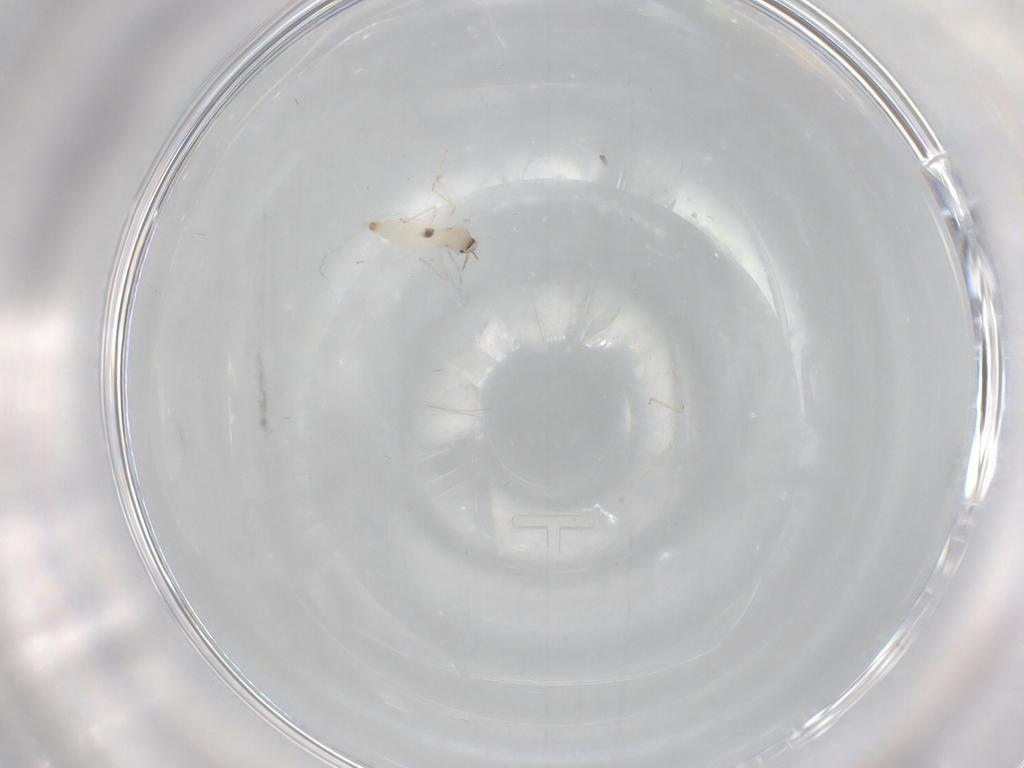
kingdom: Animalia
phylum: Arthropoda
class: Insecta
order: Diptera
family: Cecidomyiidae
